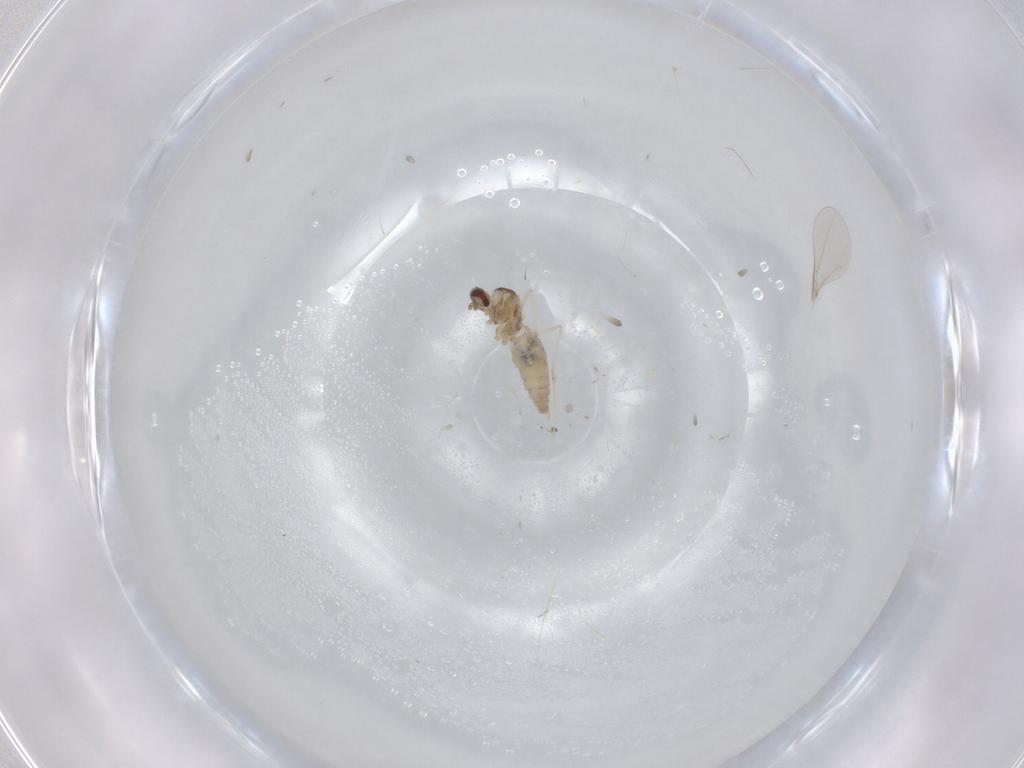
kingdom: Animalia
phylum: Arthropoda
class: Insecta
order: Diptera
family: Cecidomyiidae
